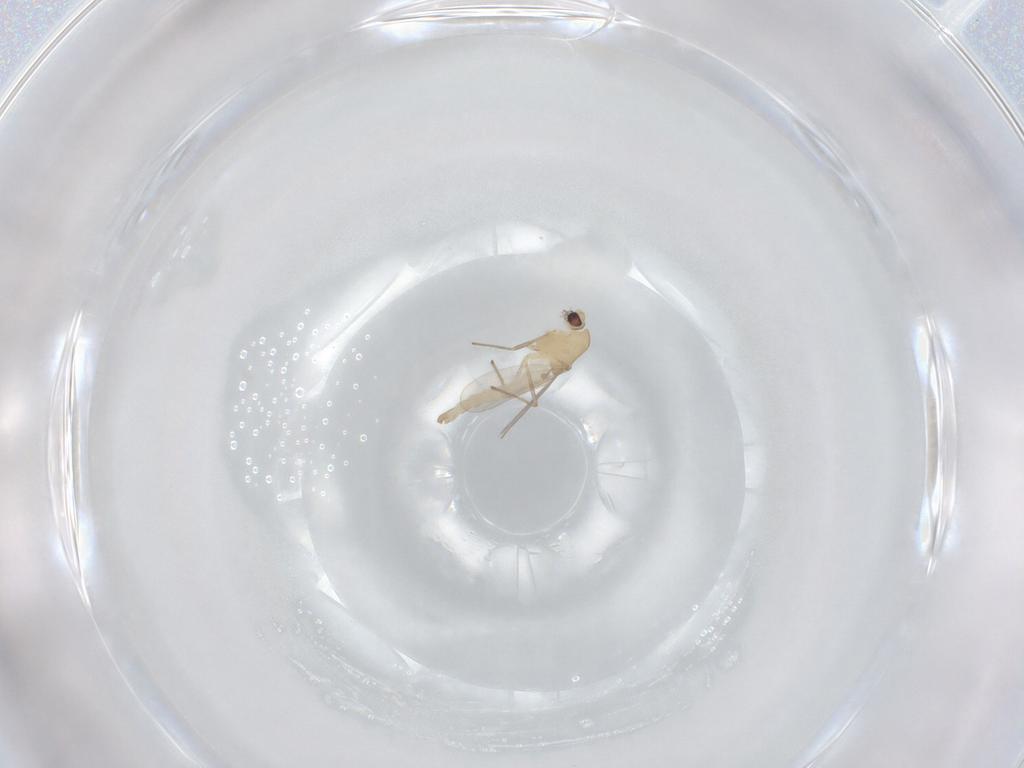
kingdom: Animalia
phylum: Arthropoda
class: Insecta
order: Diptera
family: Chironomidae
